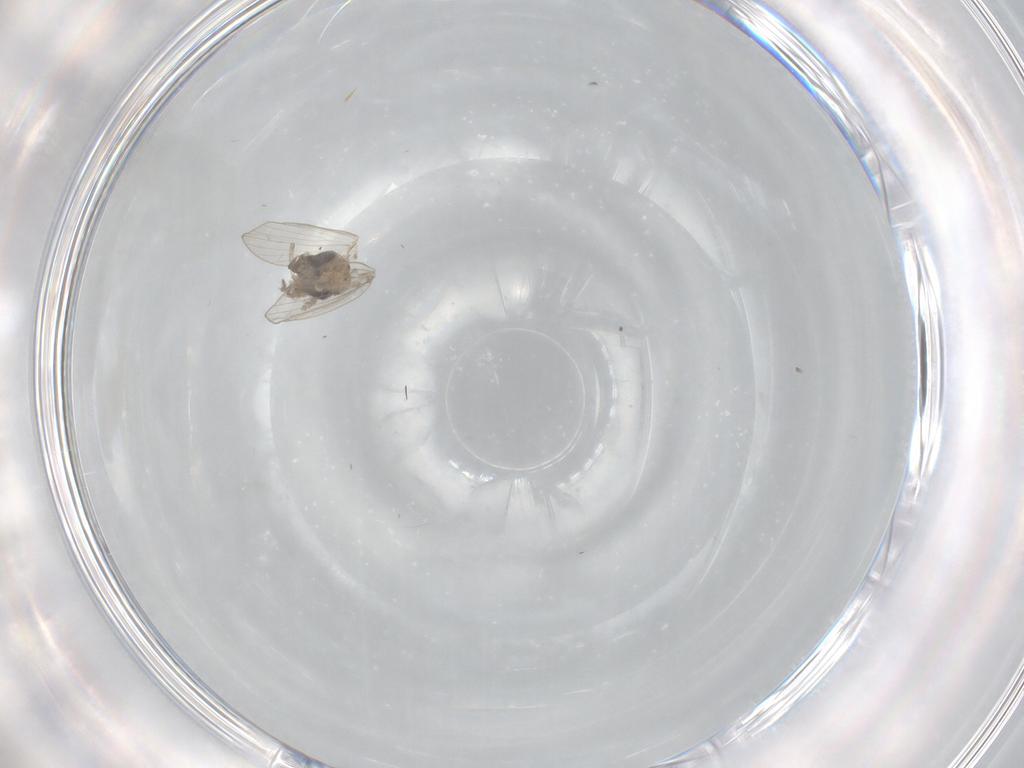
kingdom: Animalia
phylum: Arthropoda
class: Insecta
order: Diptera
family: Psychodidae
